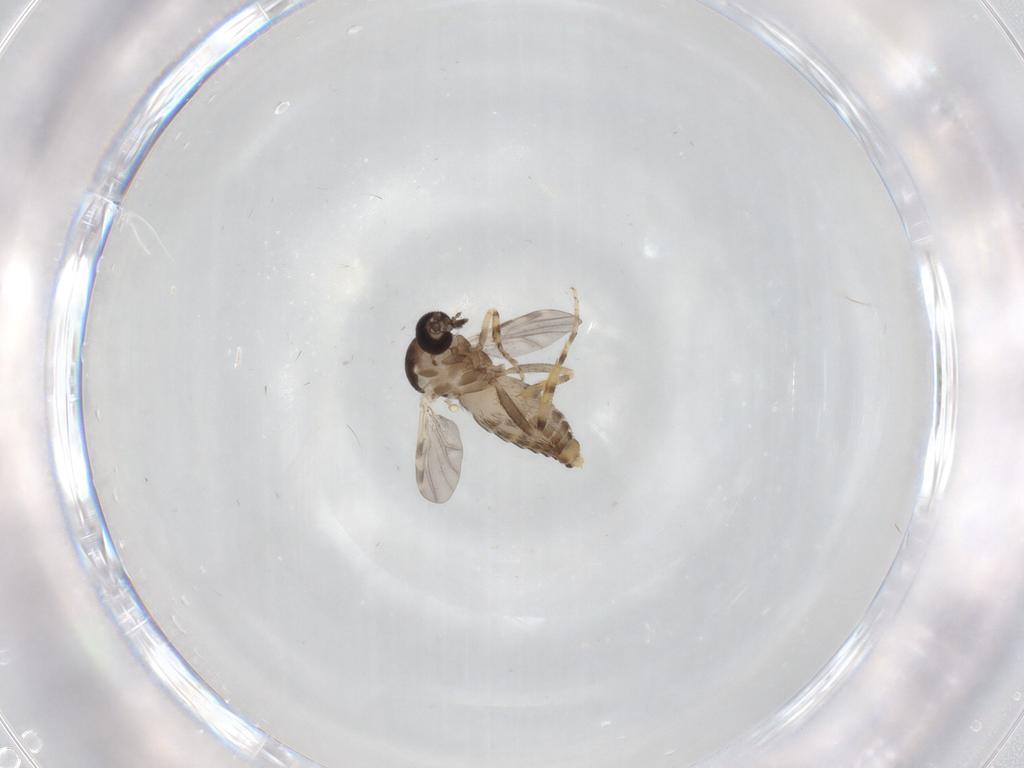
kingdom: Animalia
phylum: Arthropoda
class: Insecta
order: Diptera
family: Ceratopogonidae
